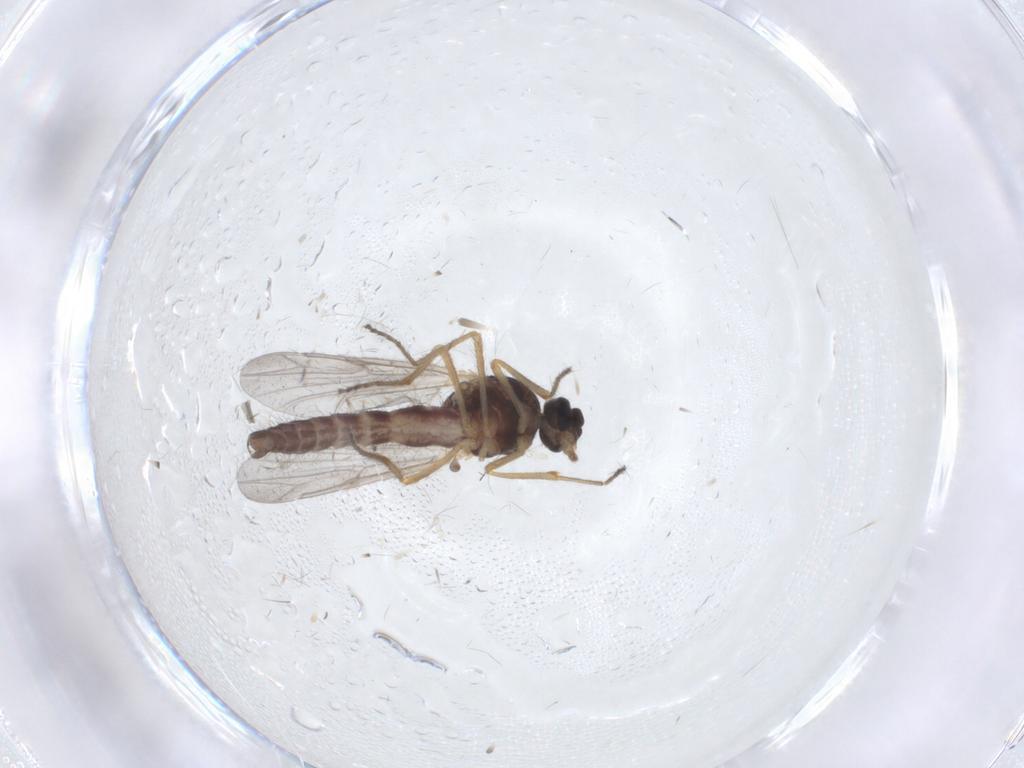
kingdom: Animalia
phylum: Arthropoda
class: Insecta
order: Diptera
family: Ceratopogonidae
